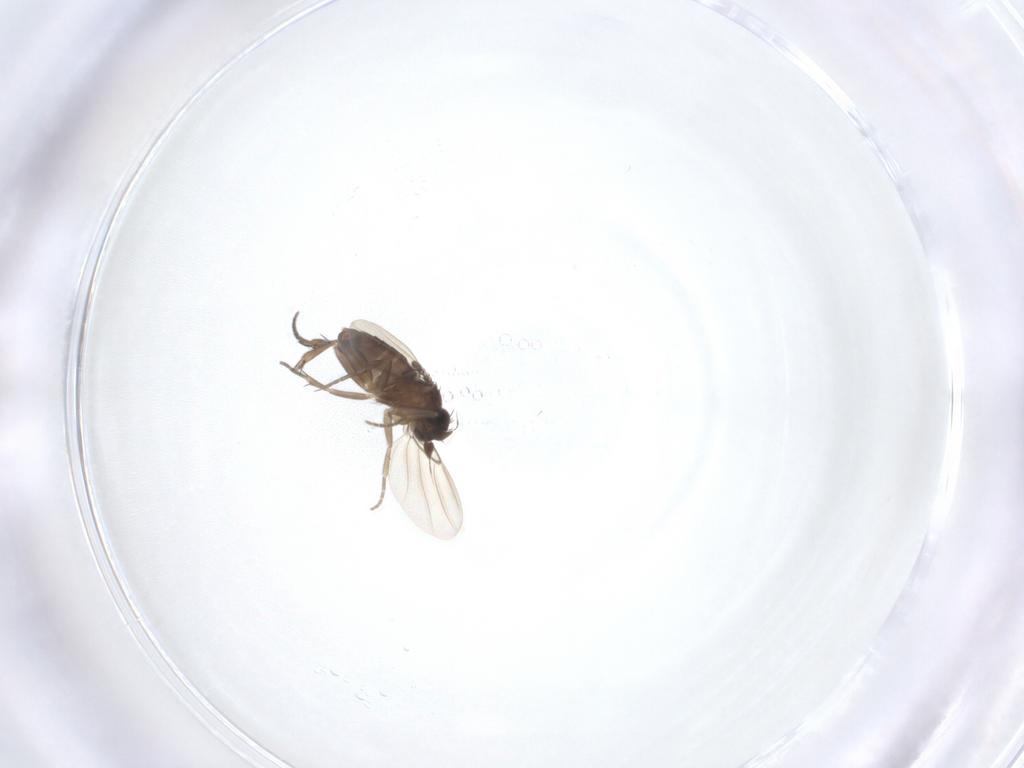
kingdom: Animalia
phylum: Arthropoda
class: Insecta
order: Diptera
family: Phoridae
